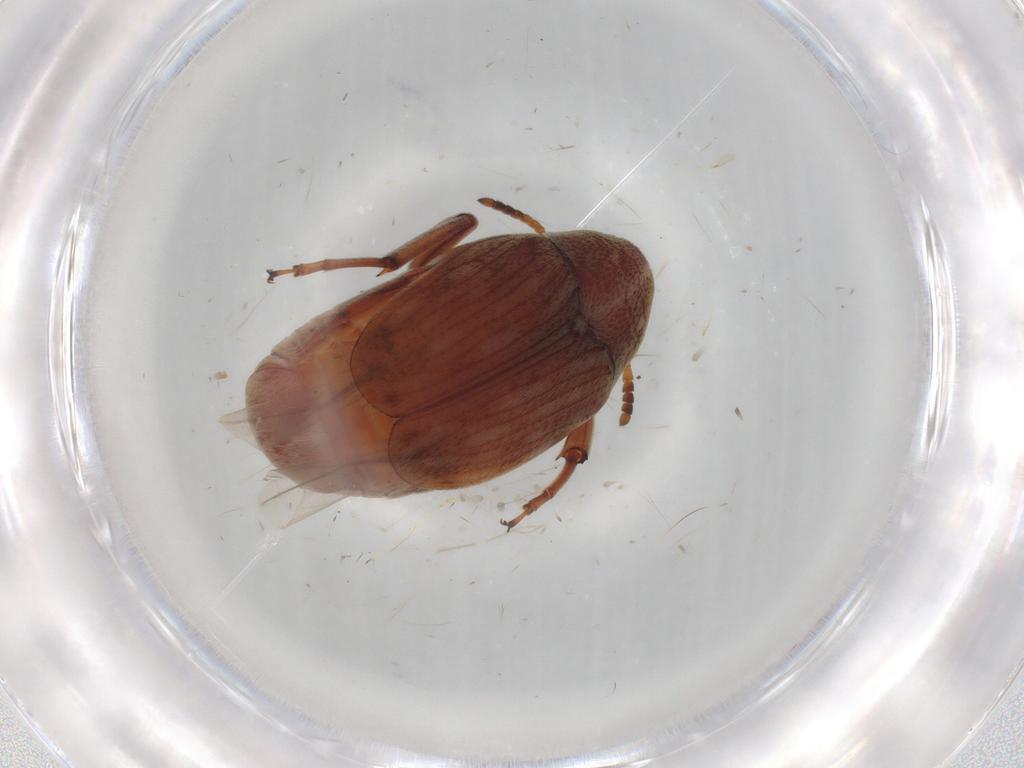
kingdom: Animalia
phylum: Arthropoda
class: Insecta
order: Coleoptera
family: Chrysomelidae
